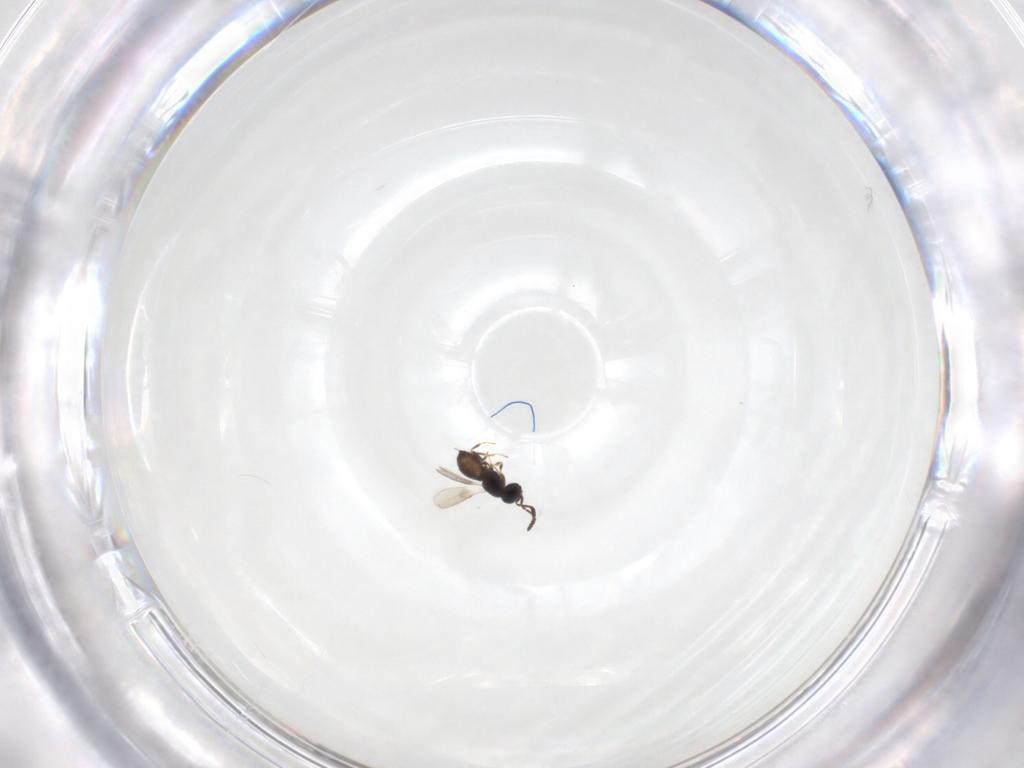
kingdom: Animalia
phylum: Arthropoda
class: Insecta
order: Hymenoptera
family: Scelionidae
